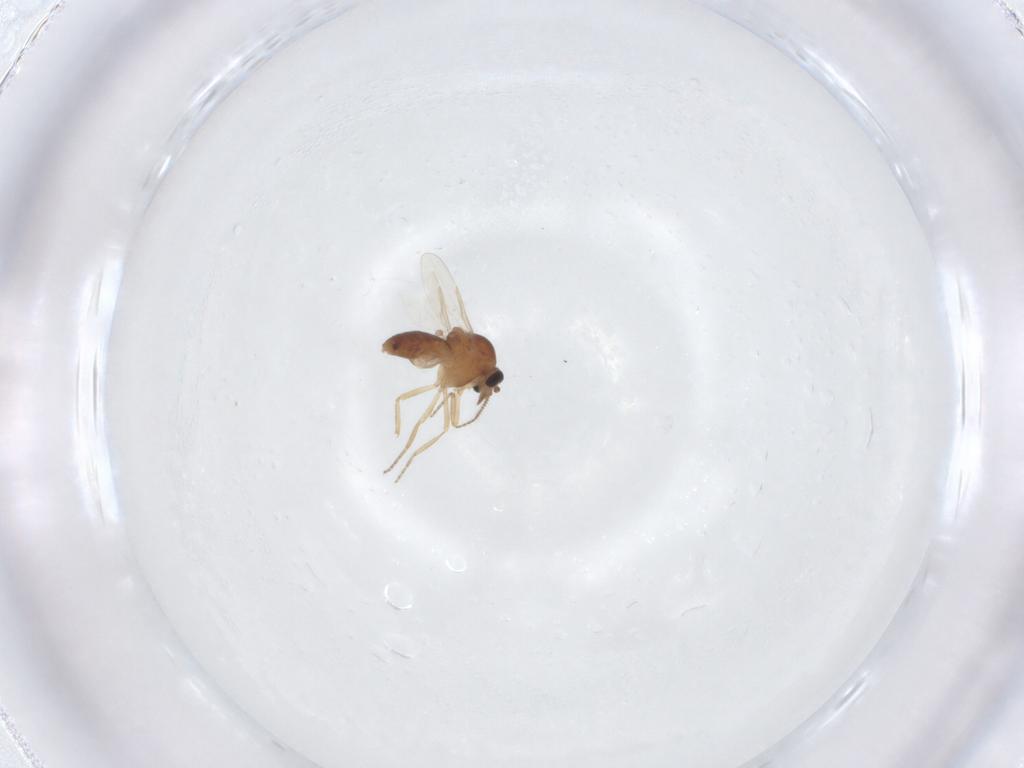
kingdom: Animalia
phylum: Arthropoda
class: Insecta
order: Diptera
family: Ceratopogonidae
